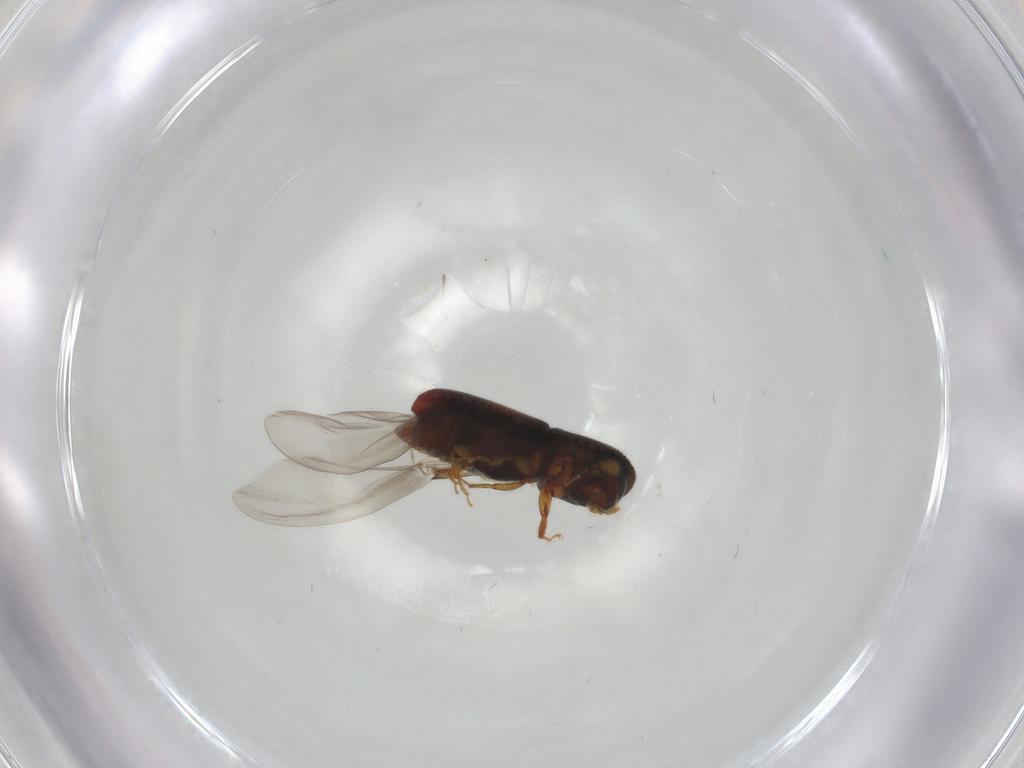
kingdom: Animalia
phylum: Arthropoda
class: Insecta
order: Coleoptera
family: Curculionidae
